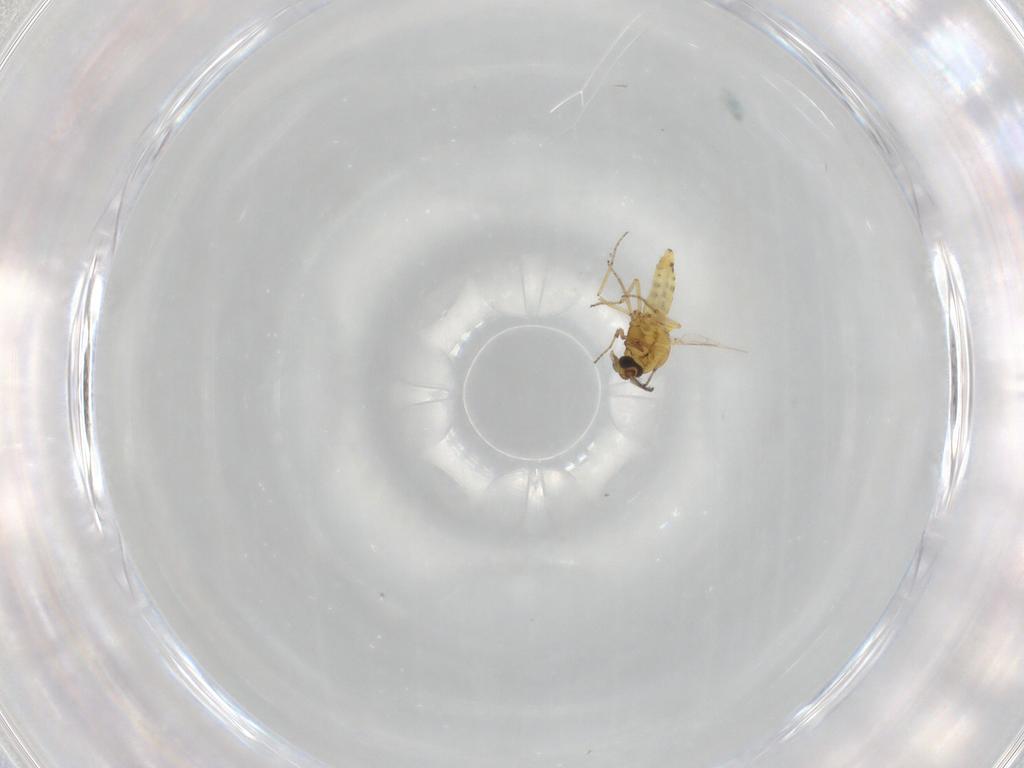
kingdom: Animalia
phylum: Arthropoda
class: Insecta
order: Diptera
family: Ceratopogonidae
